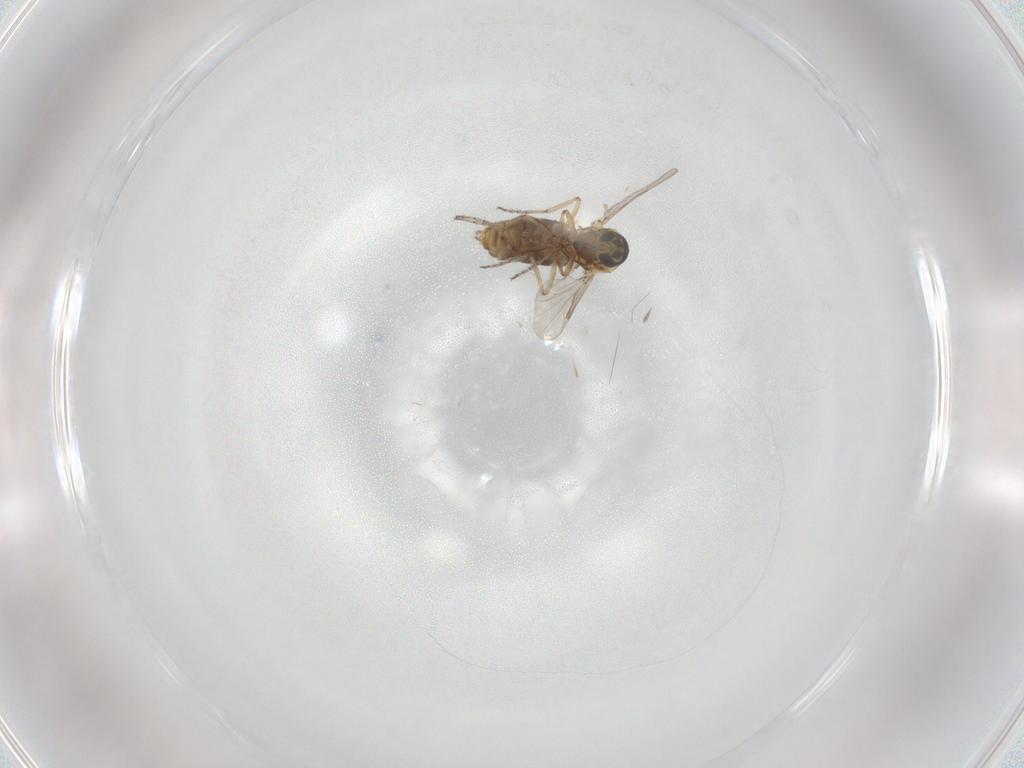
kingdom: Animalia
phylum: Arthropoda
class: Insecta
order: Diptera
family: Ceratopogonidae
